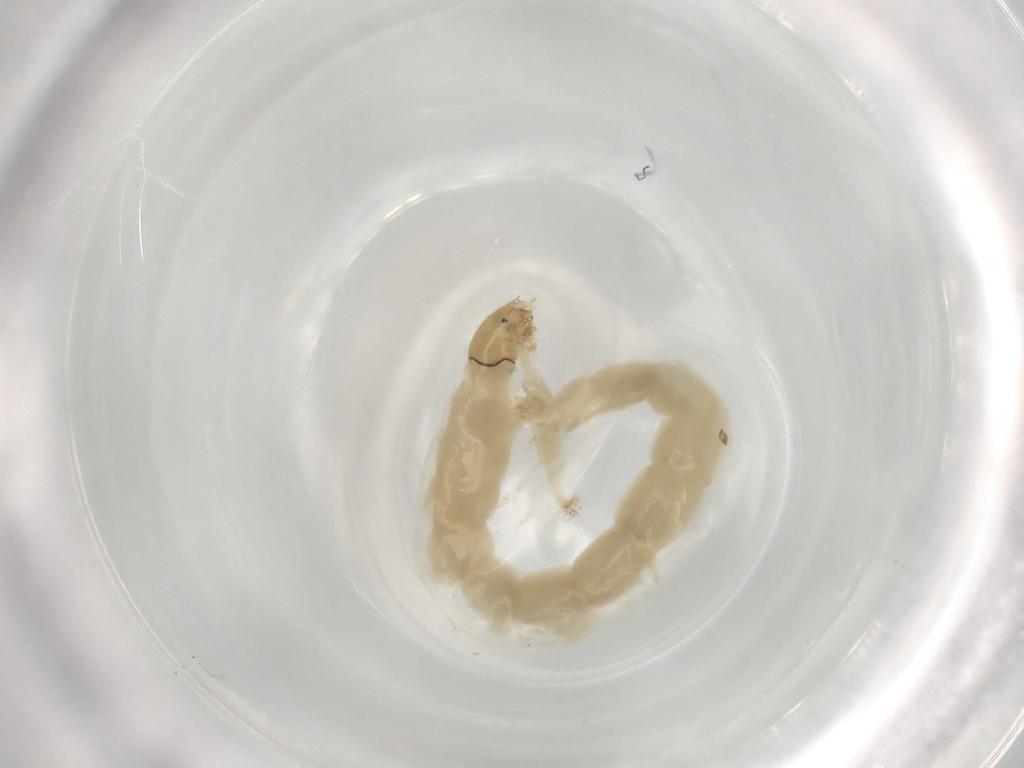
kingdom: Animalia
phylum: Arthropoda
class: Insecta
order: Diptera
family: Chironomidae
